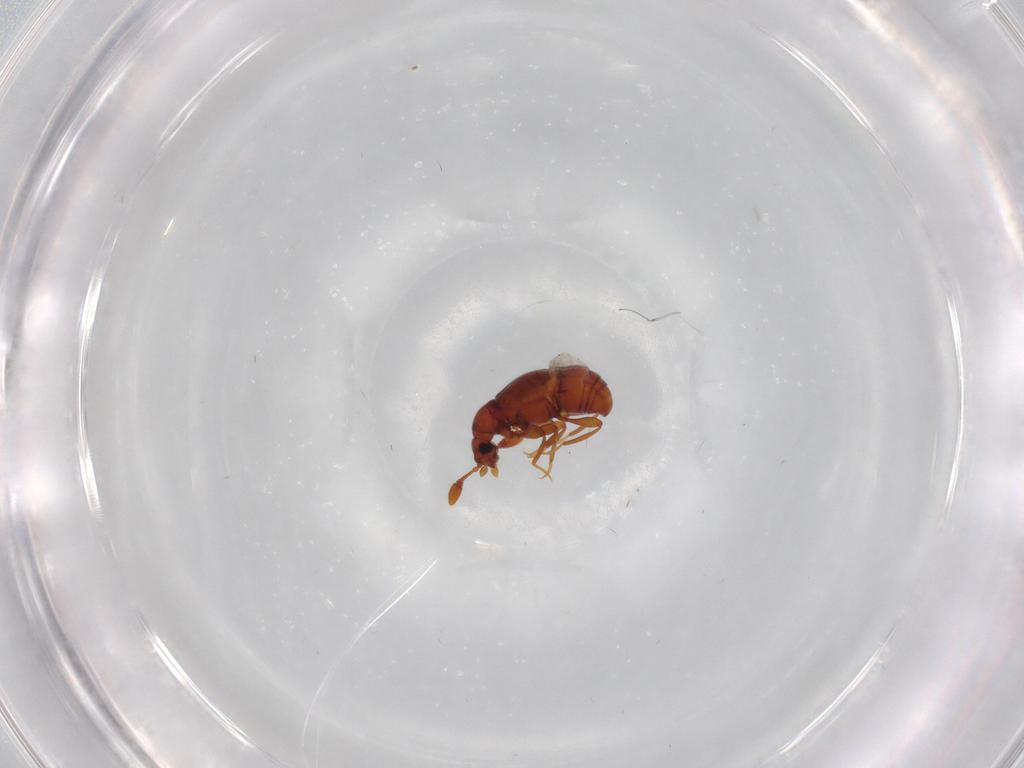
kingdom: Animalia
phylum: Arthropoda
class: Insecta
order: Coleoptera
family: Staphylinidae
